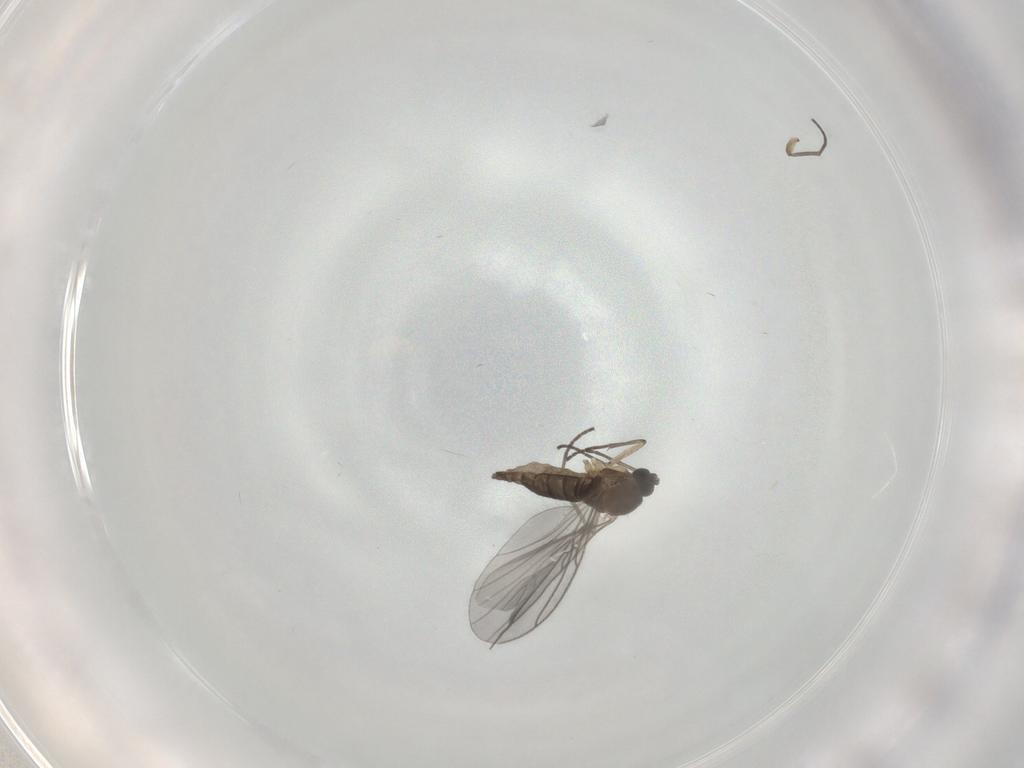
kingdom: Animalia
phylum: Arthropoda
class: Insecta
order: Diptera
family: Sciaridae
